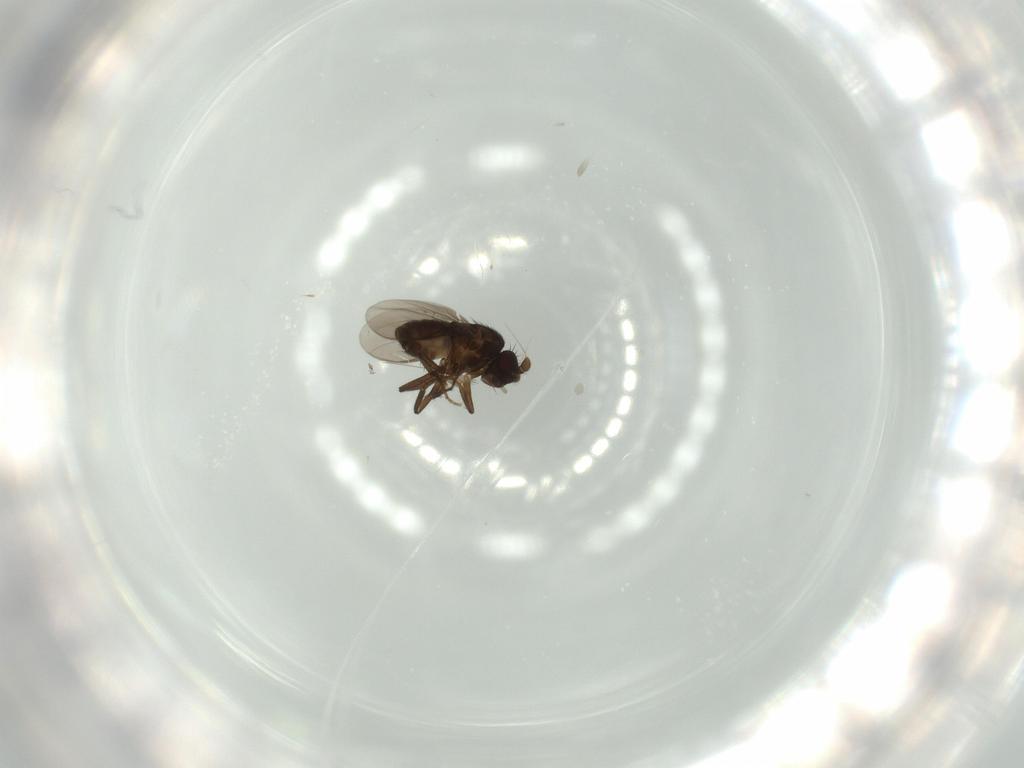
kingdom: Animalia
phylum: Arthropoda
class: Insecta
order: Diptera
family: Sphaeroceridae
